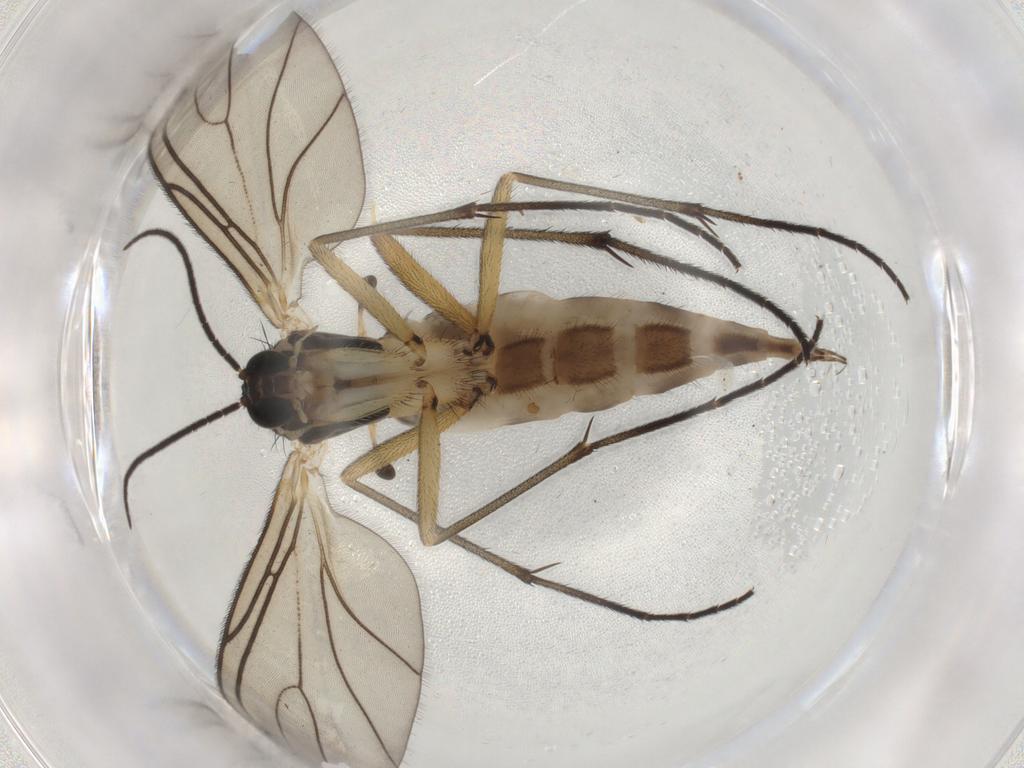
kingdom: Animalia
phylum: Arthropoda
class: Insecta
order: Diptera
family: Sciaridae
